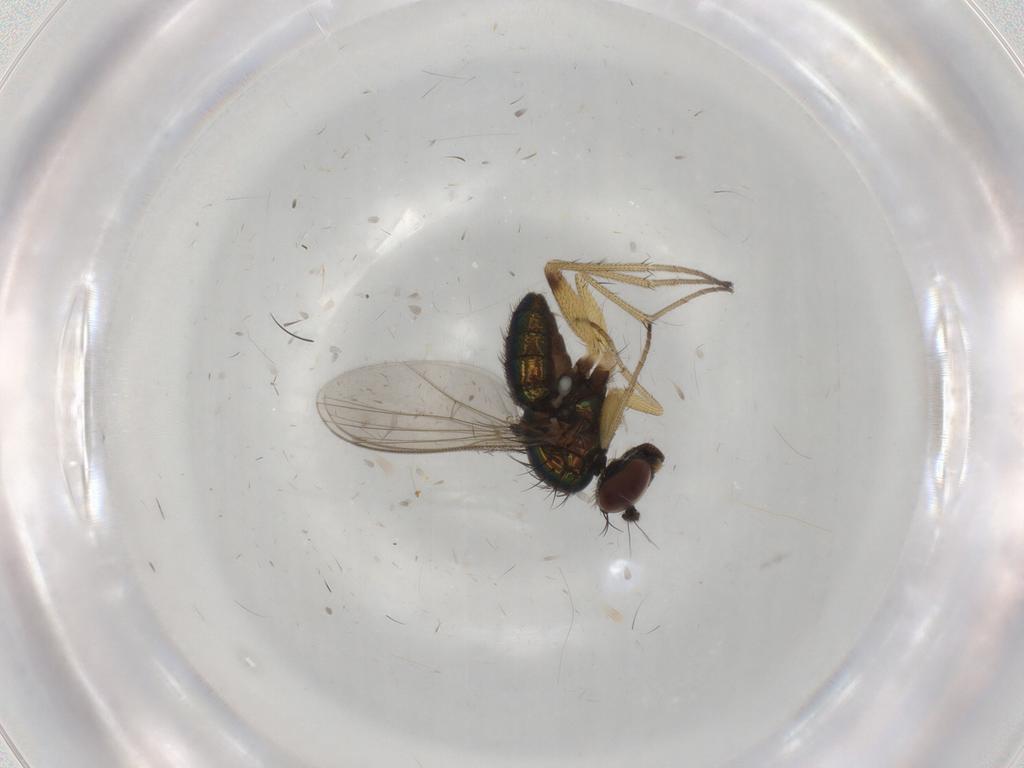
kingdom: Animalia
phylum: Arthropoda
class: Insecta
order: Diptera
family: Dolichopodidae
